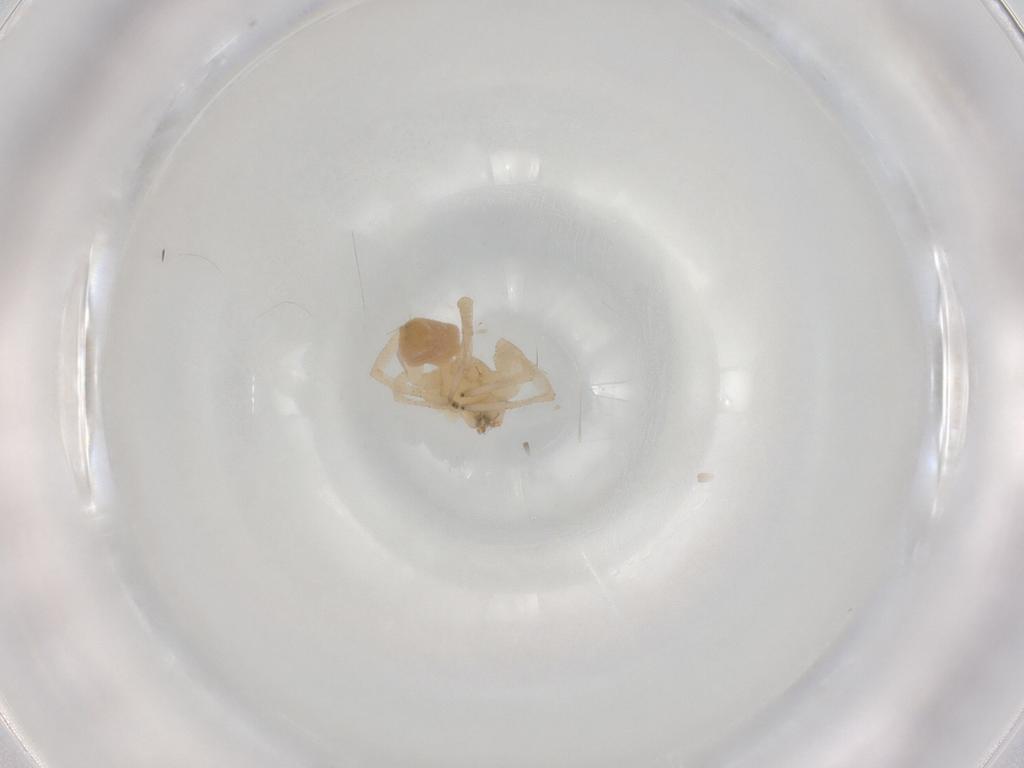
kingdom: Animalia
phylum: Arthropoda
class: Arachnida
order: Araneae
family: Cheiracanthiidae
